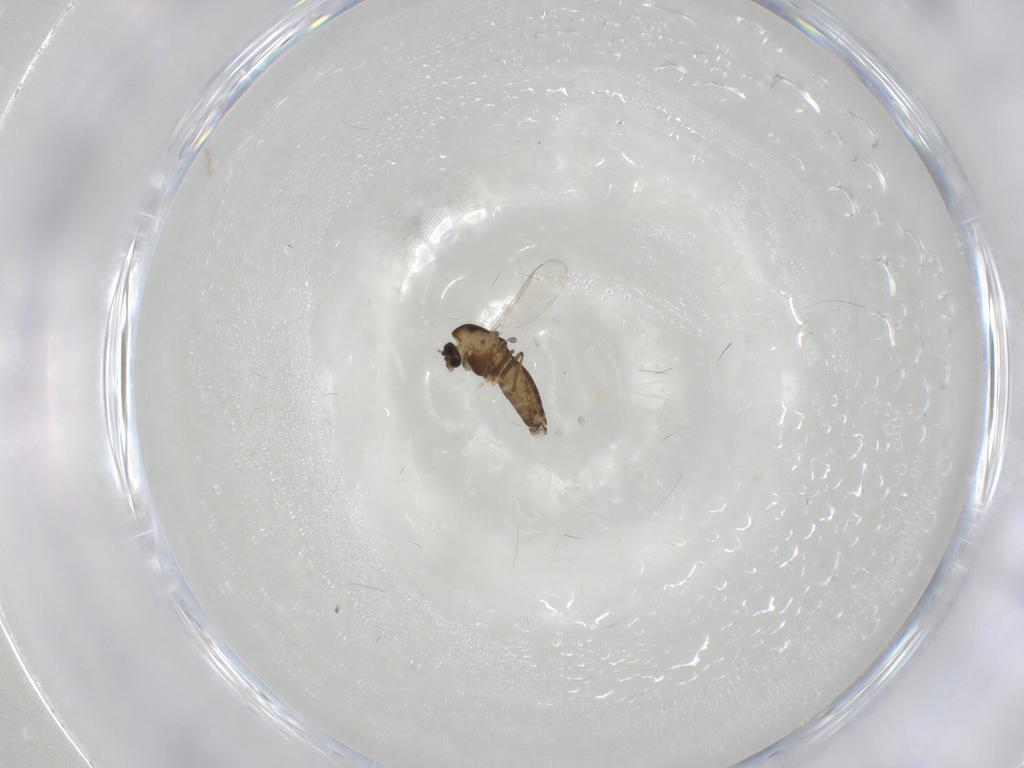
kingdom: Animalia
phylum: Arthropoda
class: Insecta
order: Diptera
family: Chironomidae
